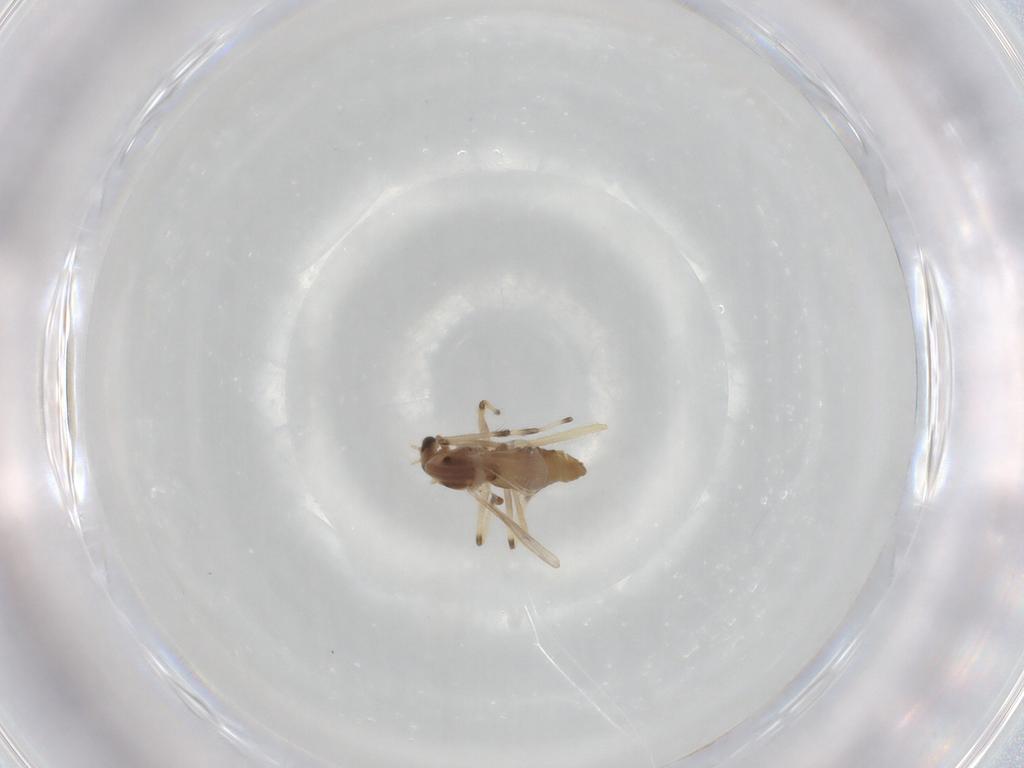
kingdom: Animalia
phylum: Arthropoda
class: Insecta
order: Diptera
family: Chironomidae
